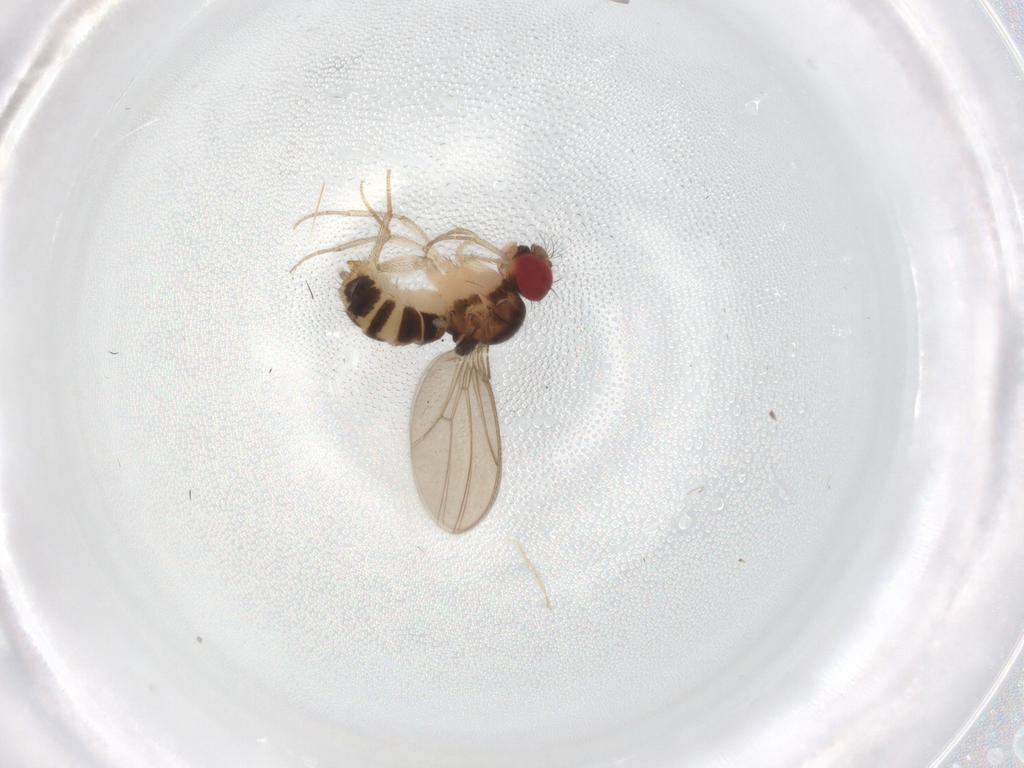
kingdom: Animalia
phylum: Arthropoda
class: Insecta
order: Diptera
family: Drosophilidae
